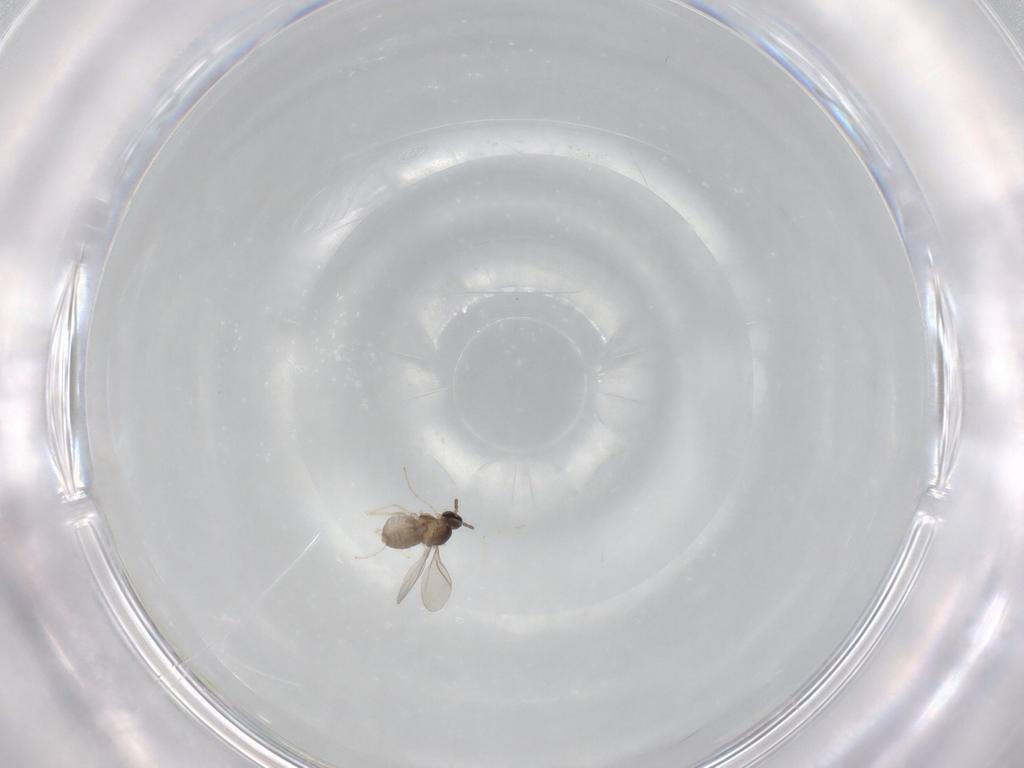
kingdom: Animalia
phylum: Arthropoda
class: Insecta
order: Diptera
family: Cecidomyiidae
